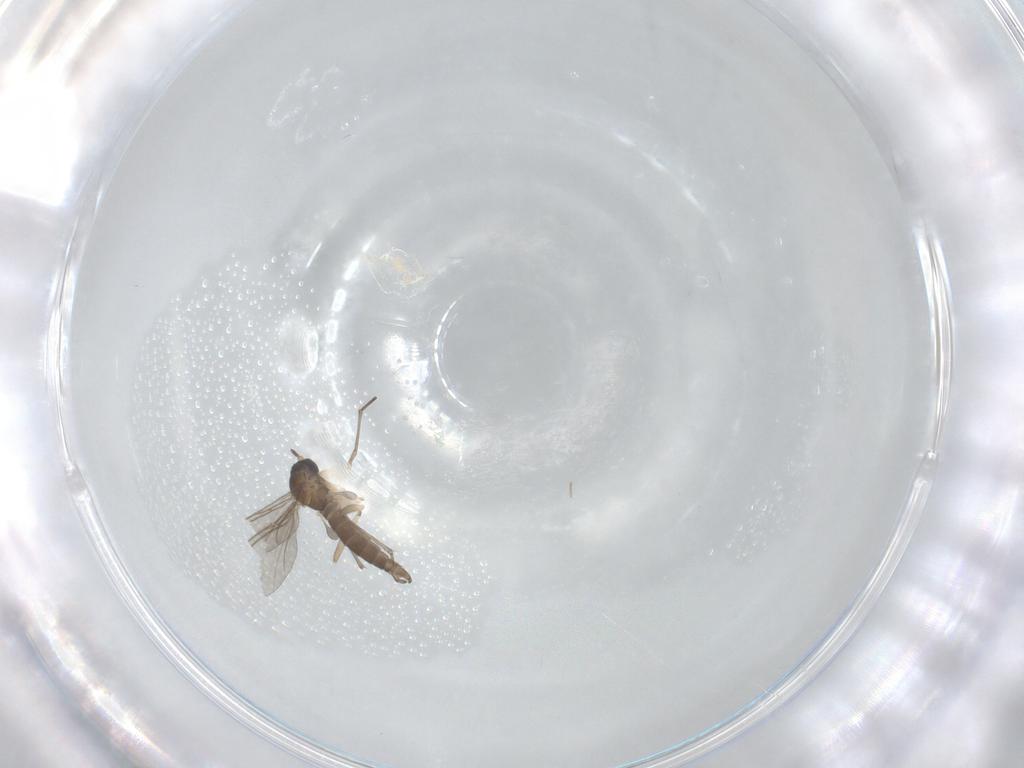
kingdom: Animalia
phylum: Arthropoda
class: Insecta
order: Diptera
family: Sciaridae
